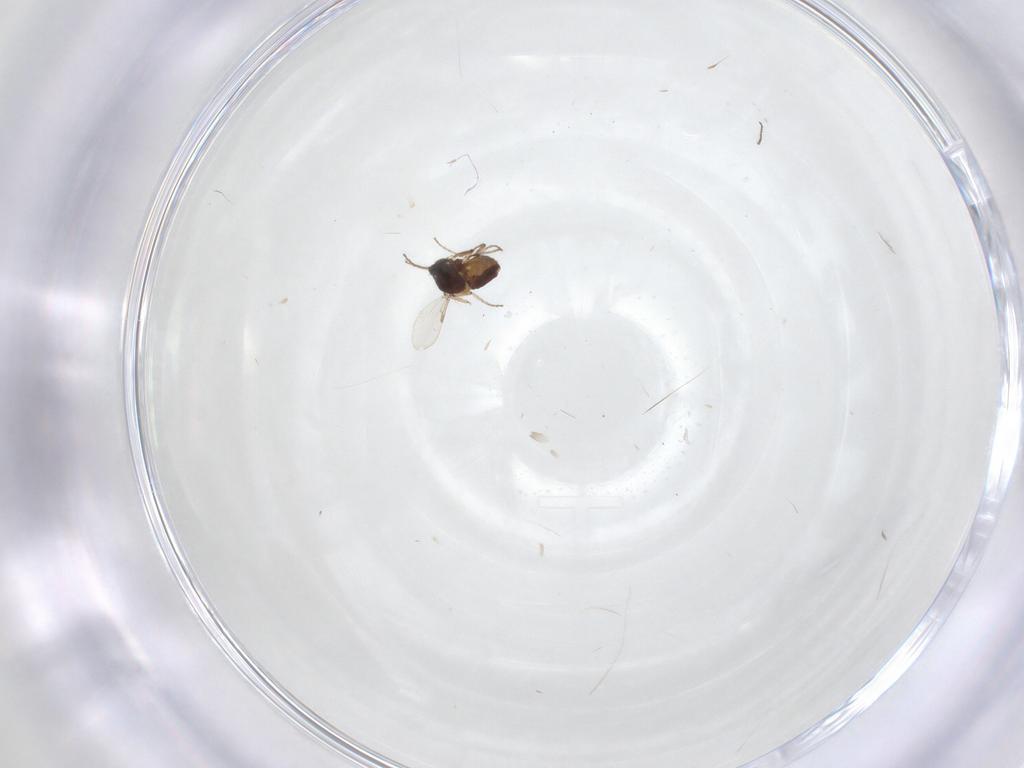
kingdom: Animalia
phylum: Arthropoda
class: Insecta
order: Diptera
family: Ceratopogonidae
